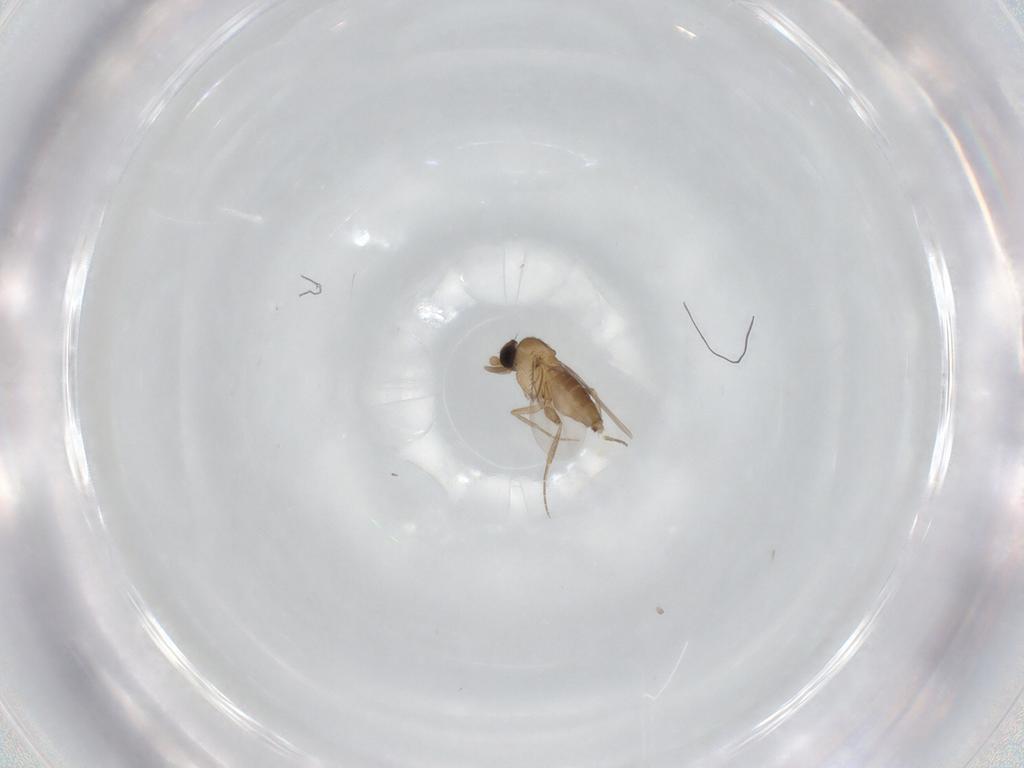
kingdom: Animalia
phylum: Arthropoda
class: Insecta
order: Diptera
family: Phoridae
